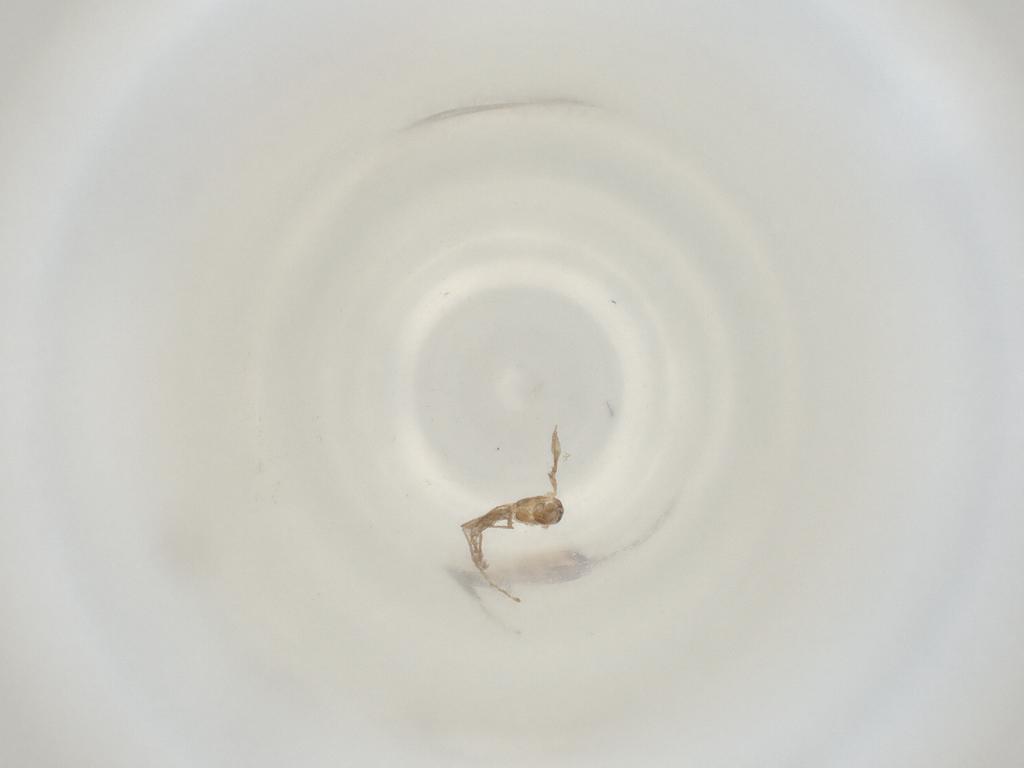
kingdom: Animalia
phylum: Arthropoda
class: Insecta
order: Diptera
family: Cecidomyiidae
